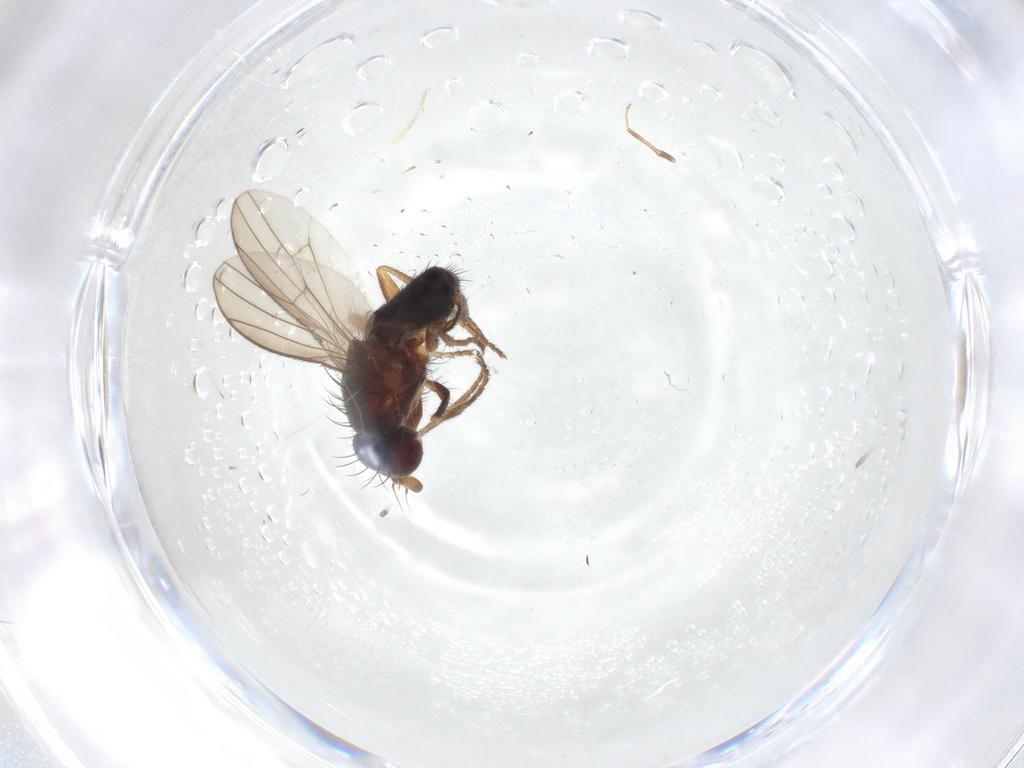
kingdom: Animalia
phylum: Arthropoda
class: Insecta
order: Diptera
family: Heleomyzidae
